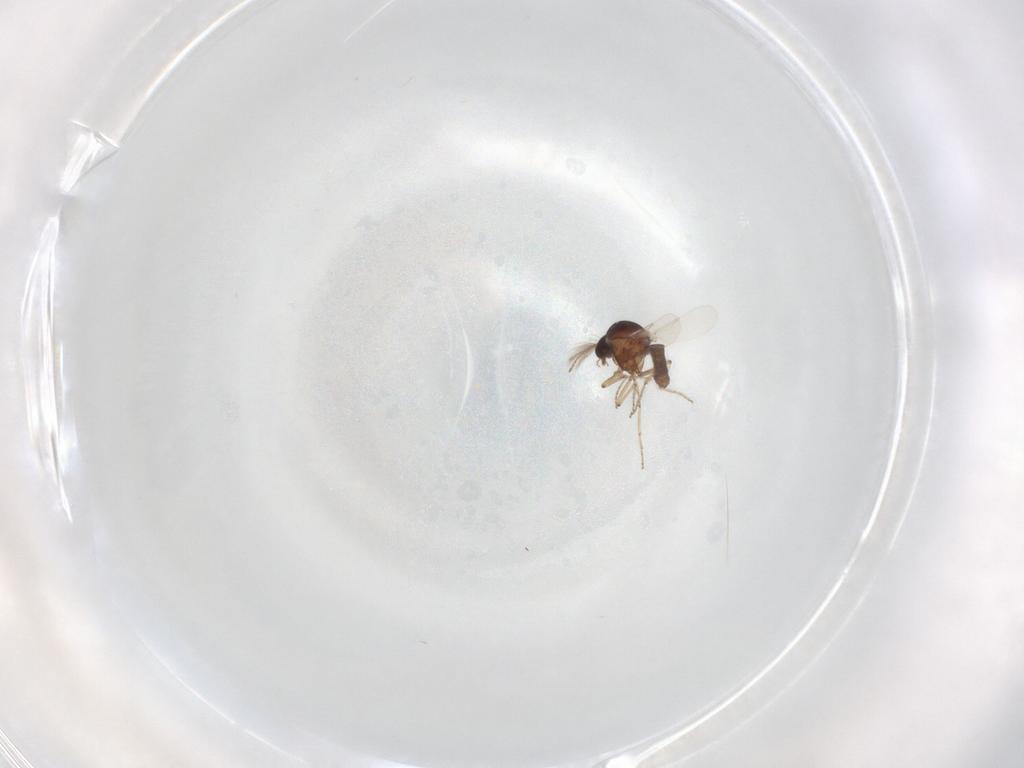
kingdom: Animalia
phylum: Arthropoda
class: Insecta
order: Diptera
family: Ceratopogonidae
